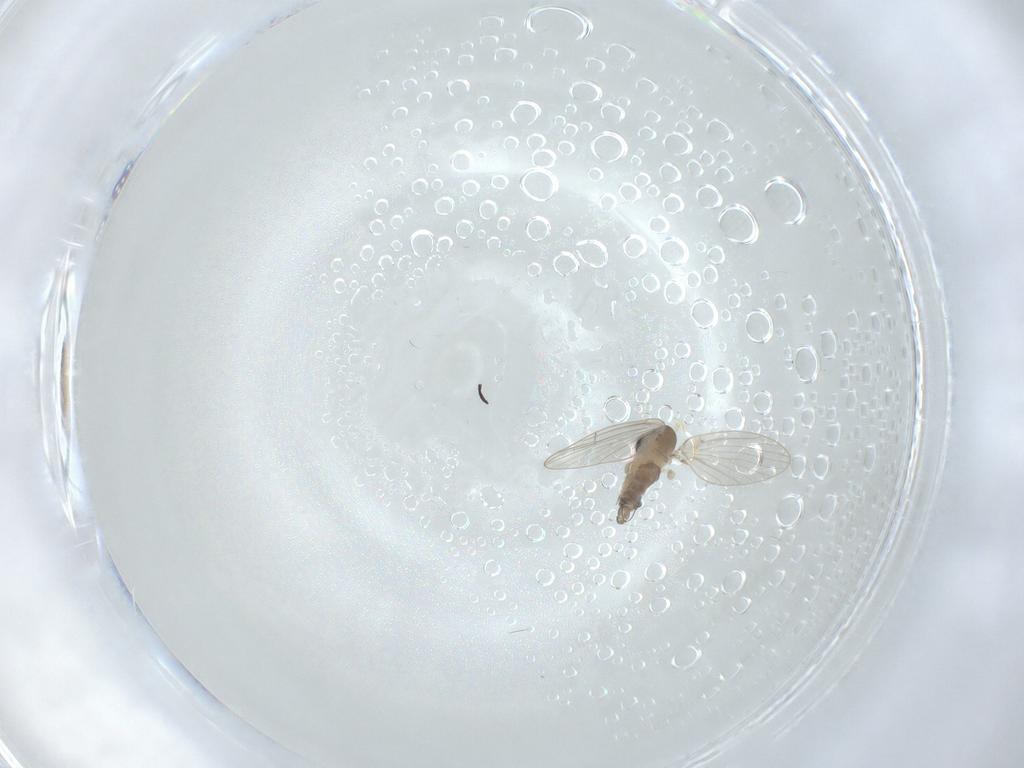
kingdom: Animalia
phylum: Arthropoda
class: Insecta
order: Diptera
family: Psychodidae
